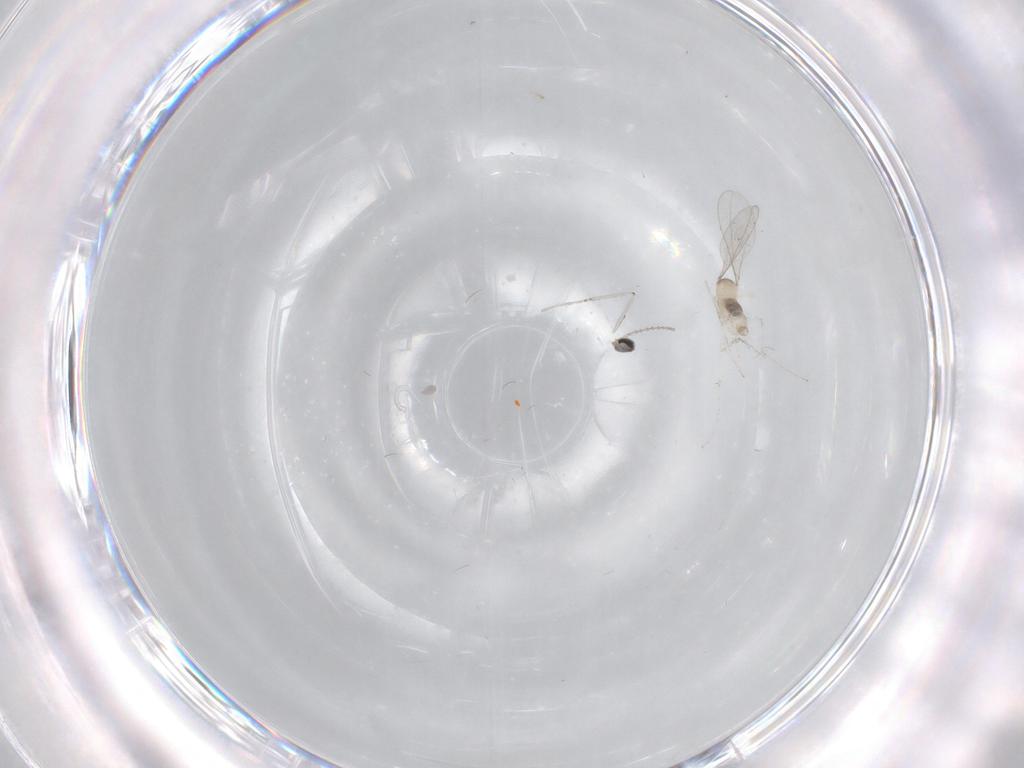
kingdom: Animalia
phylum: Arthropoda
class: Insecta
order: Diptera
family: Cecidomyiidae
